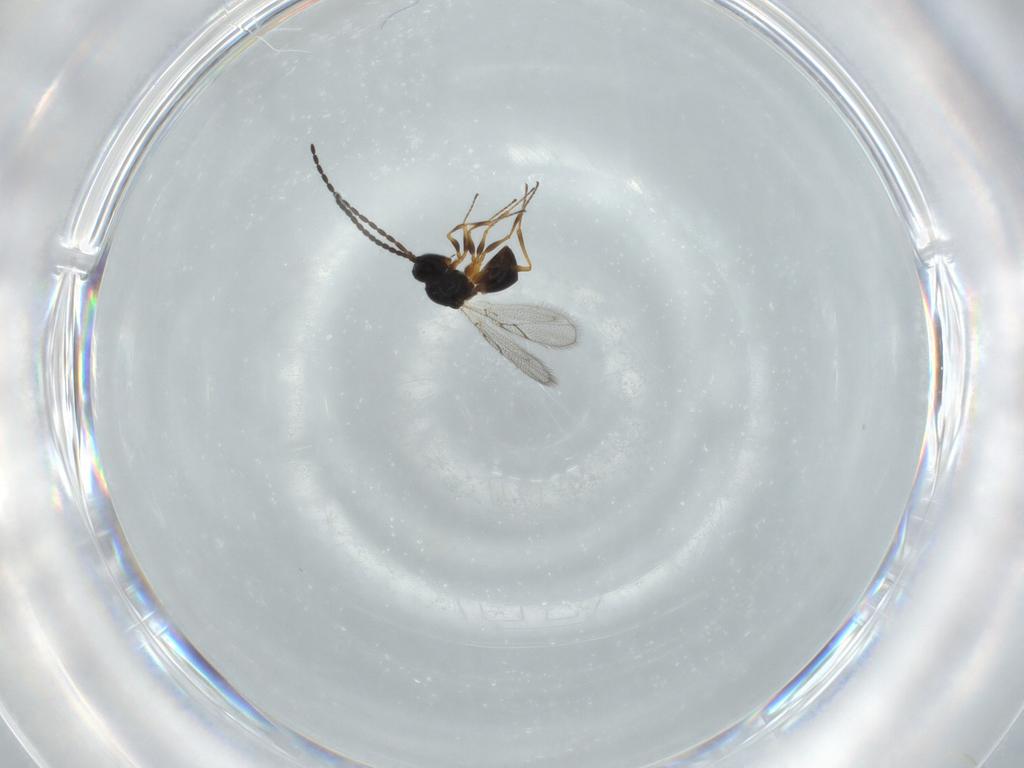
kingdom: Animalia
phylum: Arthropoda
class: Insecta
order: Hymenoptera
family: Figitidae
